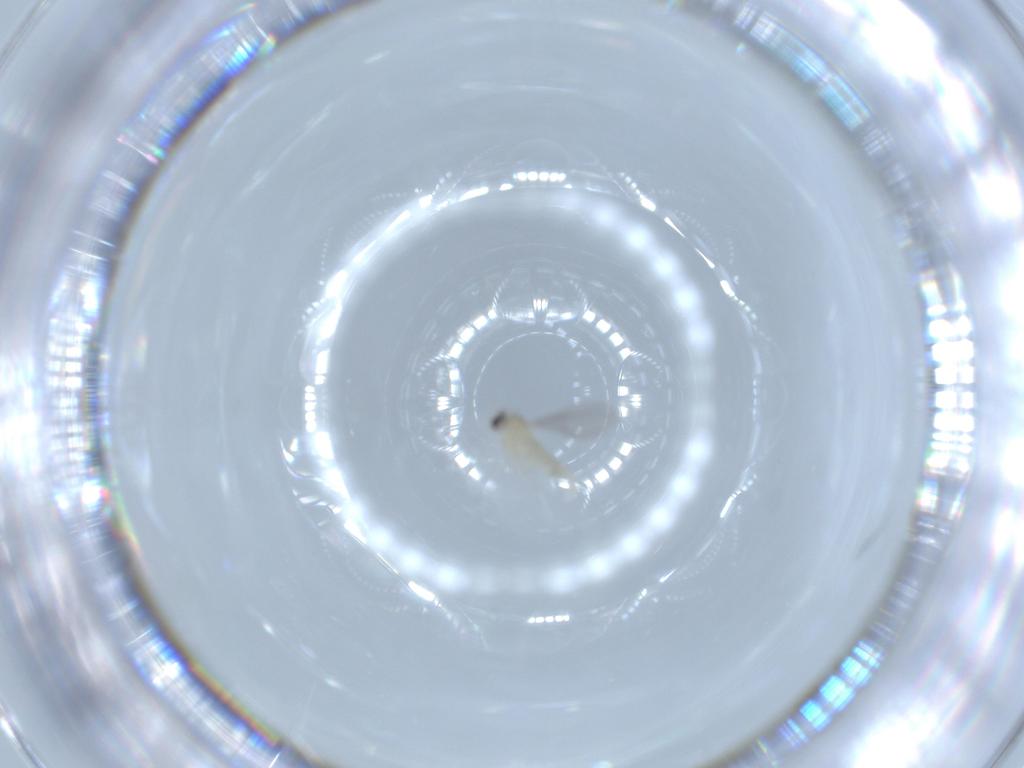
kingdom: Animalia
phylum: Arthropoda
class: Insecta
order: Diptera
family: Cecidomyiidae
